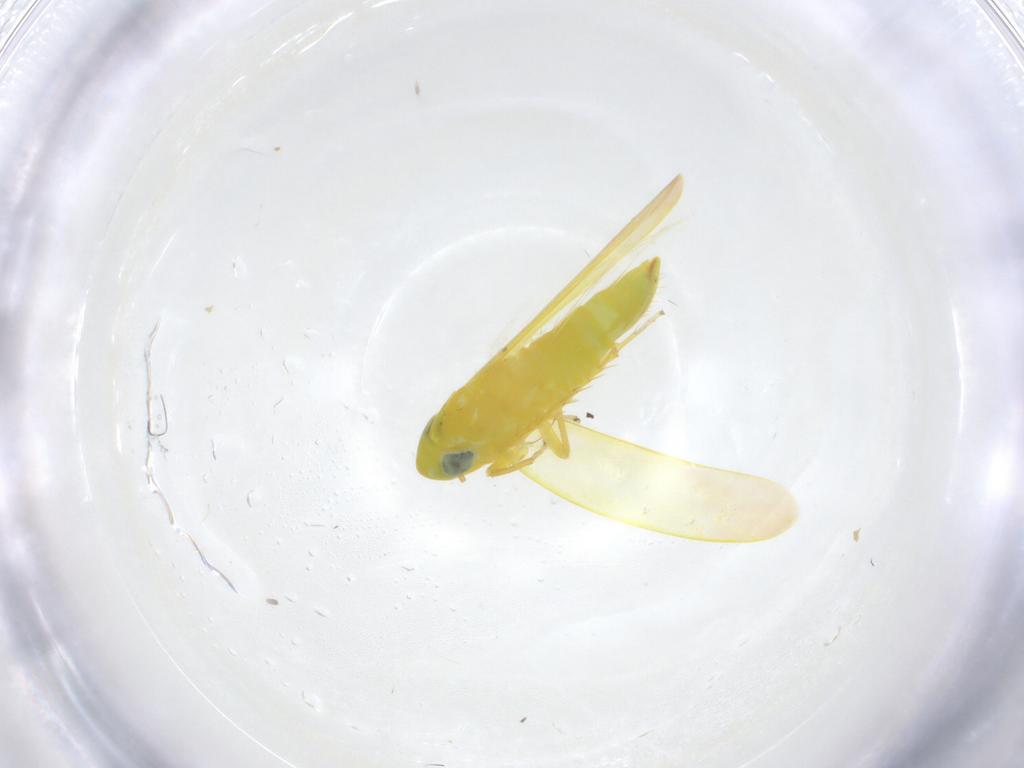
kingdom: Animalia
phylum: Arthropoda
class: Insecta
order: Hemiptera
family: Cicadellidae
